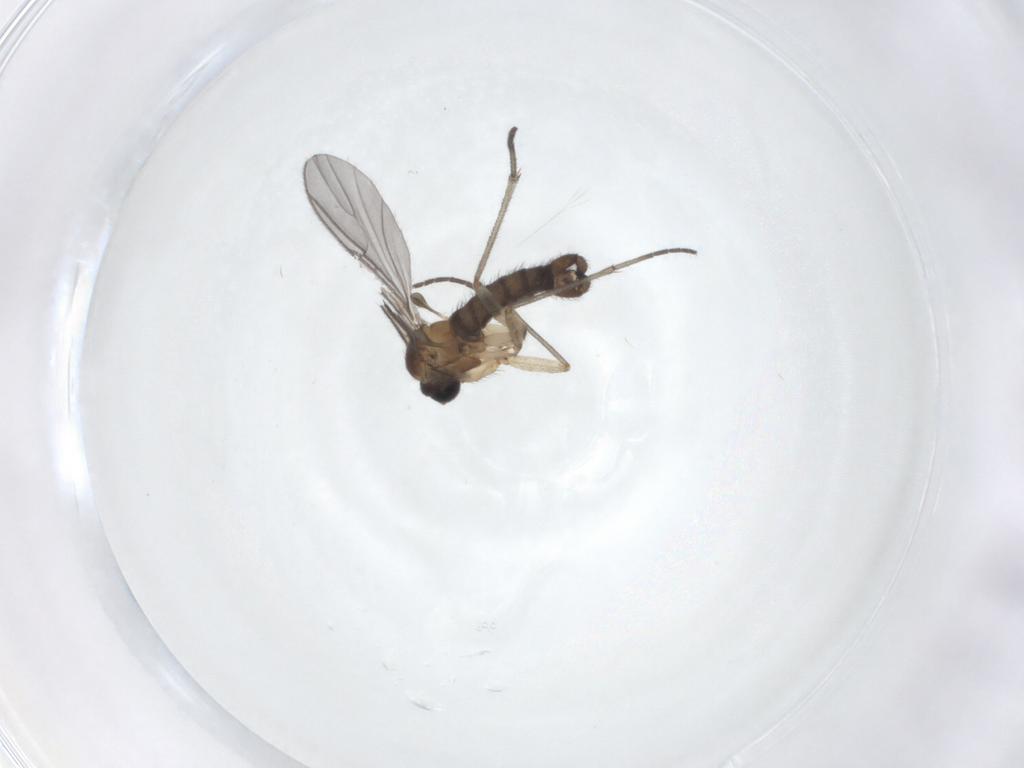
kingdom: Animalia
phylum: Arthropoda
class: Insecta
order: Diptera
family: Sciaridae
